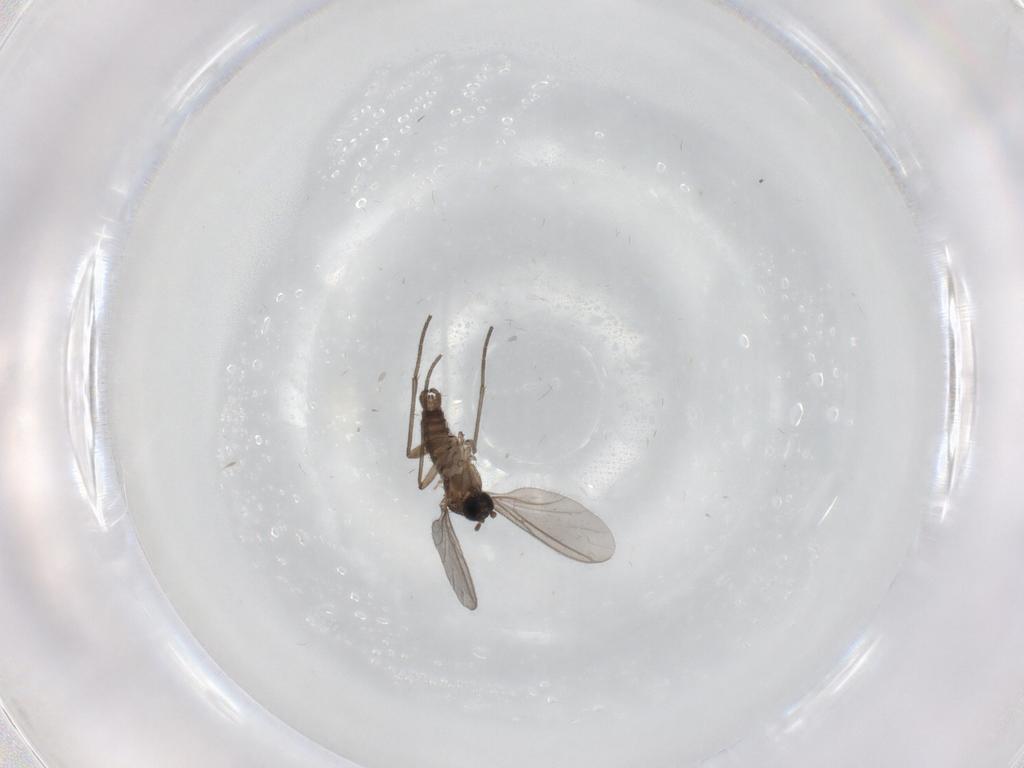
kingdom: Animalia
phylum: Arthropoda
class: Insecta
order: Diptera
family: Sciaridae
